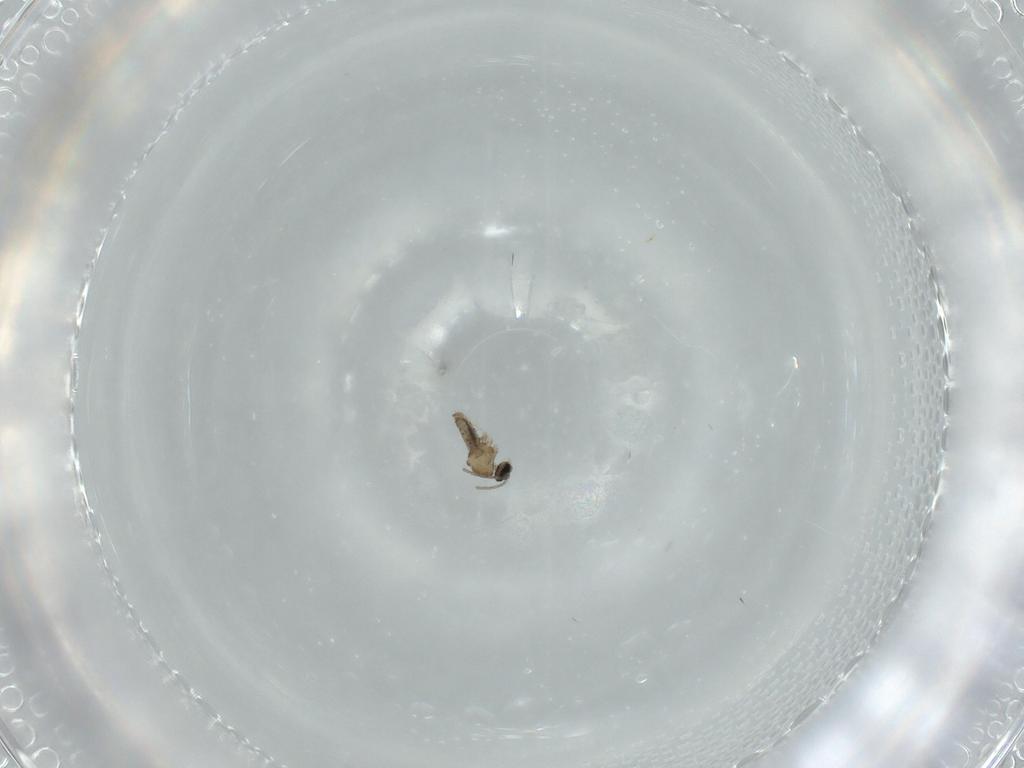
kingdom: Animalia
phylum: Arthropoda
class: Insecta
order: Diptera
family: Milichiidae
